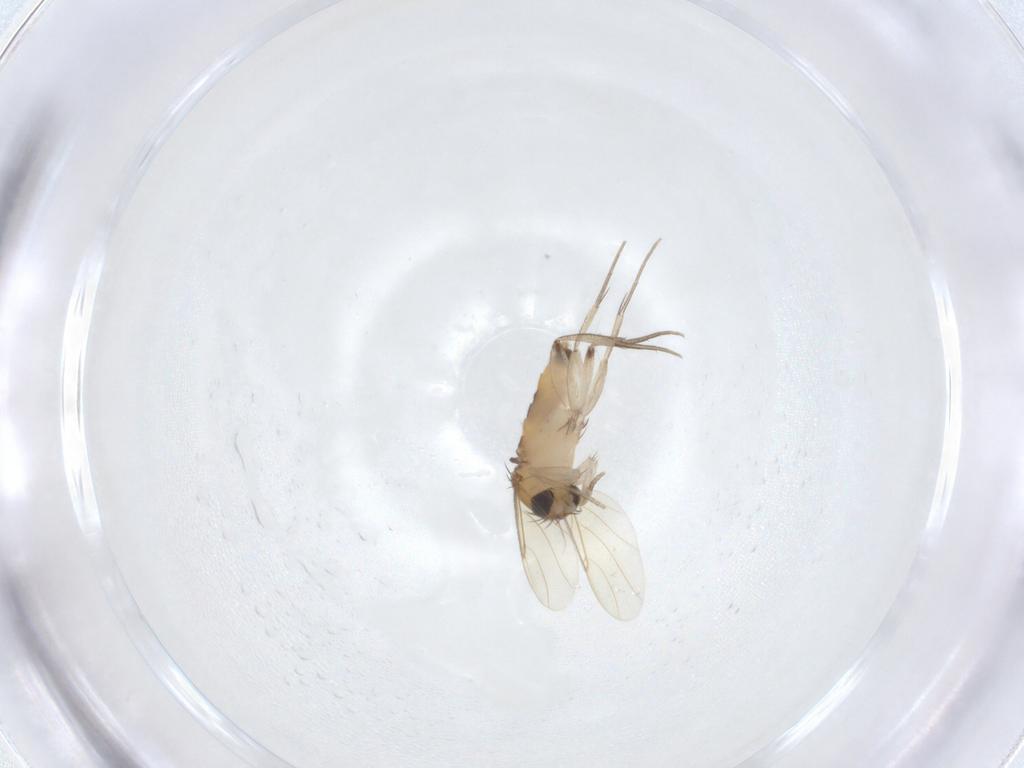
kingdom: Animalia
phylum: Arthropoda
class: Insecta
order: Diptera
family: Phoridae
